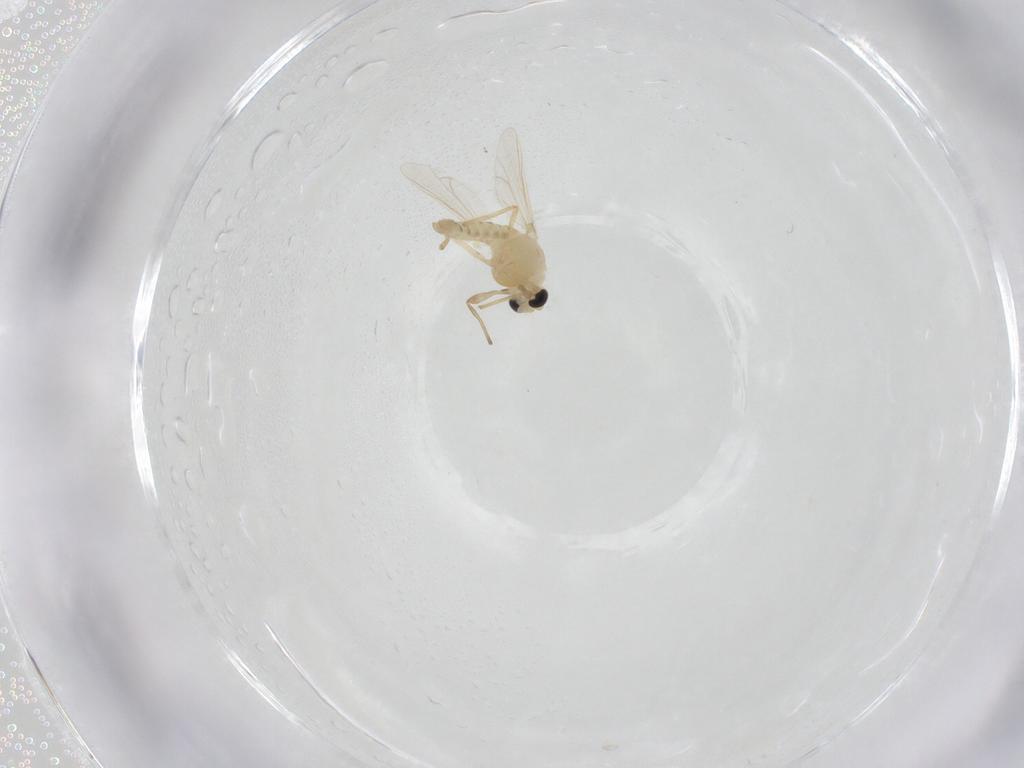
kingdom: Animalia
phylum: Arthropoda
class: Insecta
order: Diptera
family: Chironomidae
